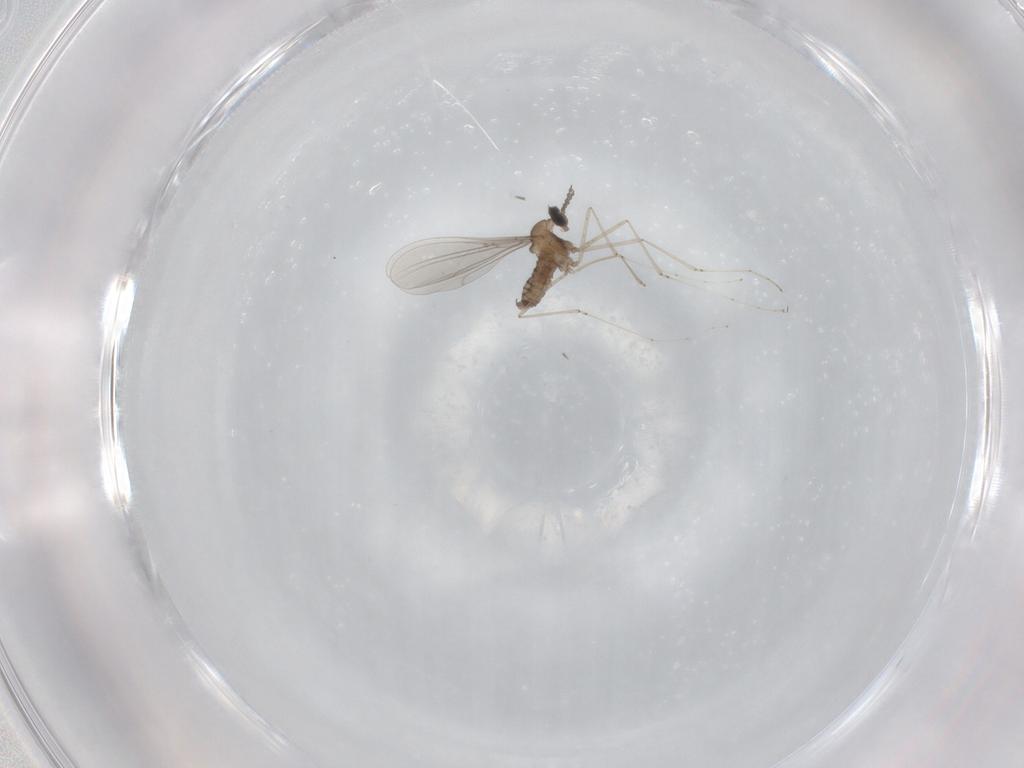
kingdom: Animalia
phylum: Arthropoda
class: Insecta
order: Diptera
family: Cecidomyiidae
